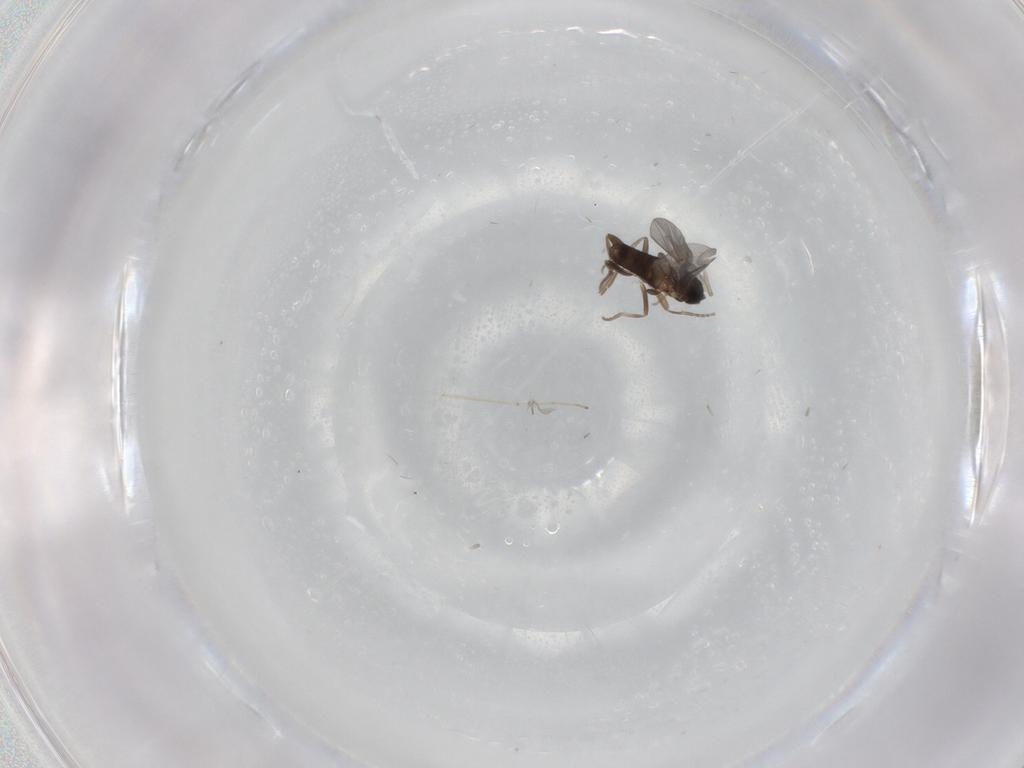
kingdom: Animalia
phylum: Arthropoda
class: Insecta
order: Diptera
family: Cecidomyiidae
